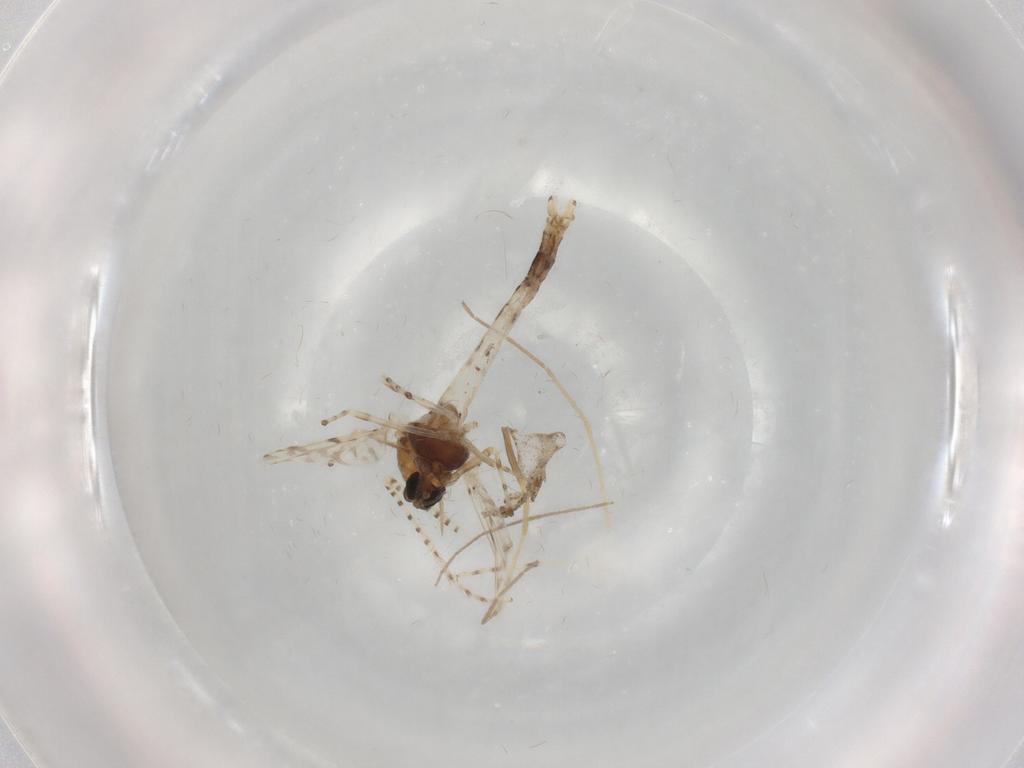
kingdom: Animalia
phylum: Arthropoda
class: Insecta
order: Diptera
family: Chironomidae
